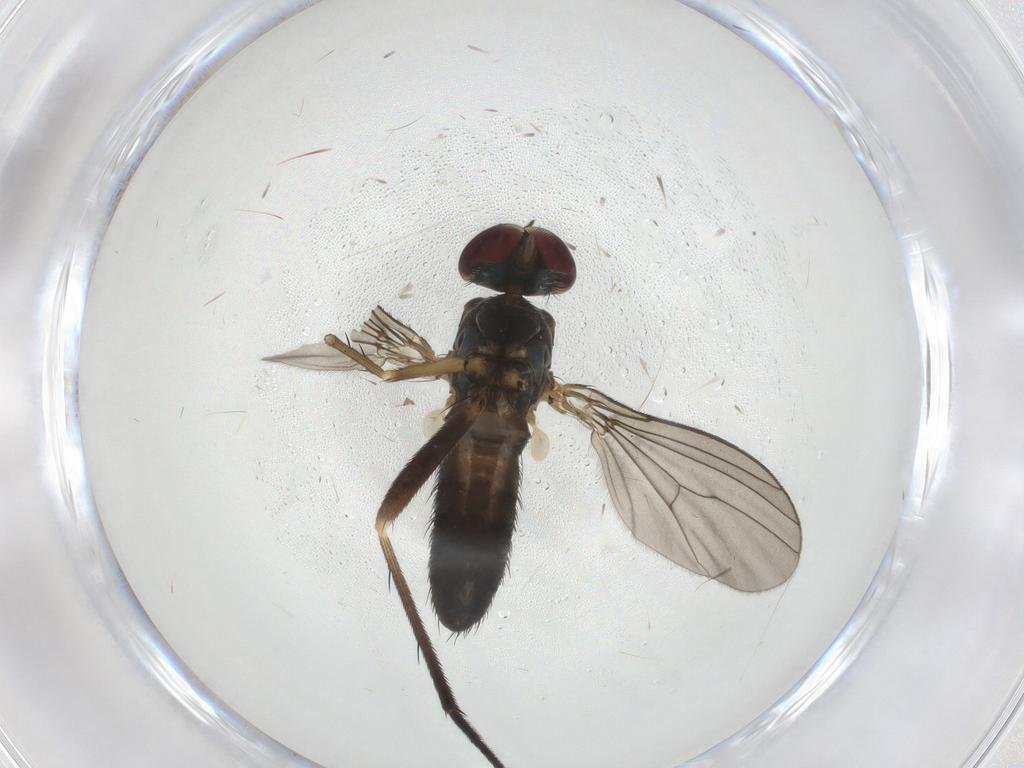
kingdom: Animalia
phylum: Arthropoda
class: Insecta
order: Diptera
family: Dolichopodidae
